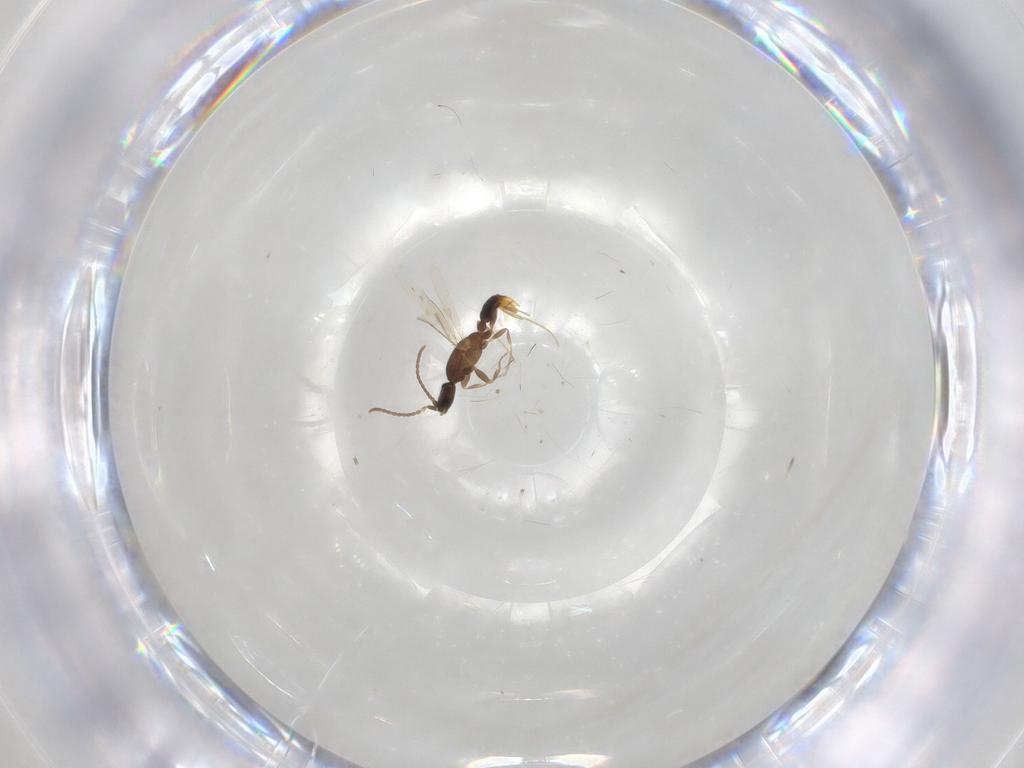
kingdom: Animalia
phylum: Arthropoda
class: Insecta
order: Hymenoptera
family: Formicidae
